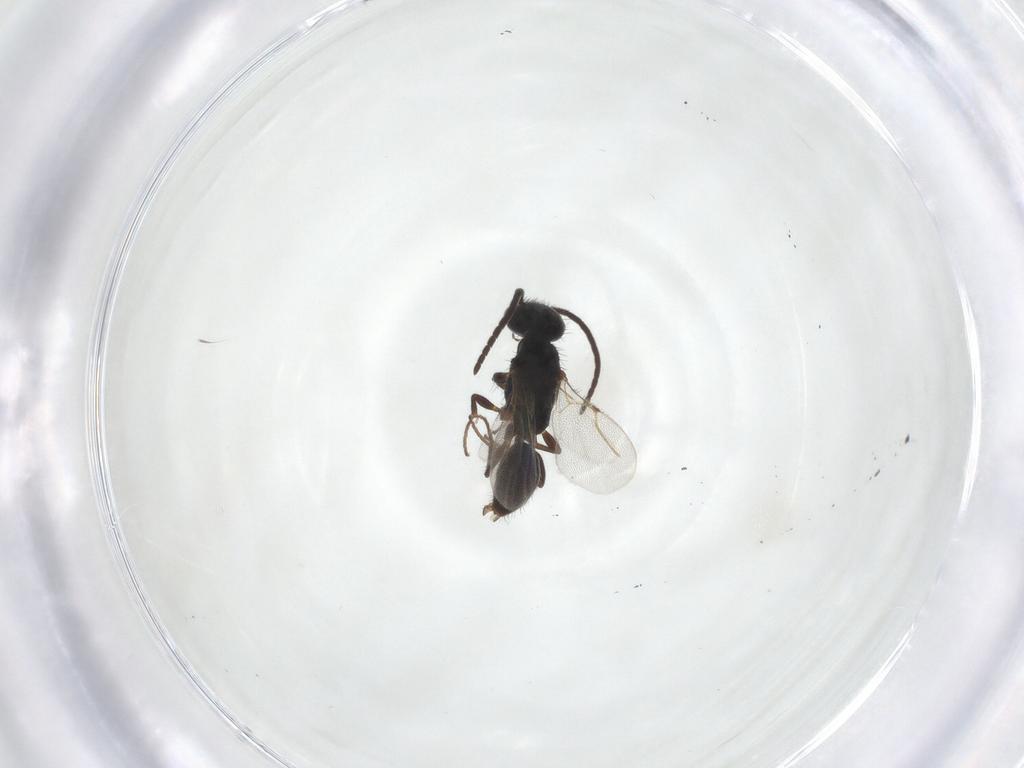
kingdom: Animalia
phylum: Arthropoda
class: Insecta
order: Hymenoptera
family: Bethylidae
